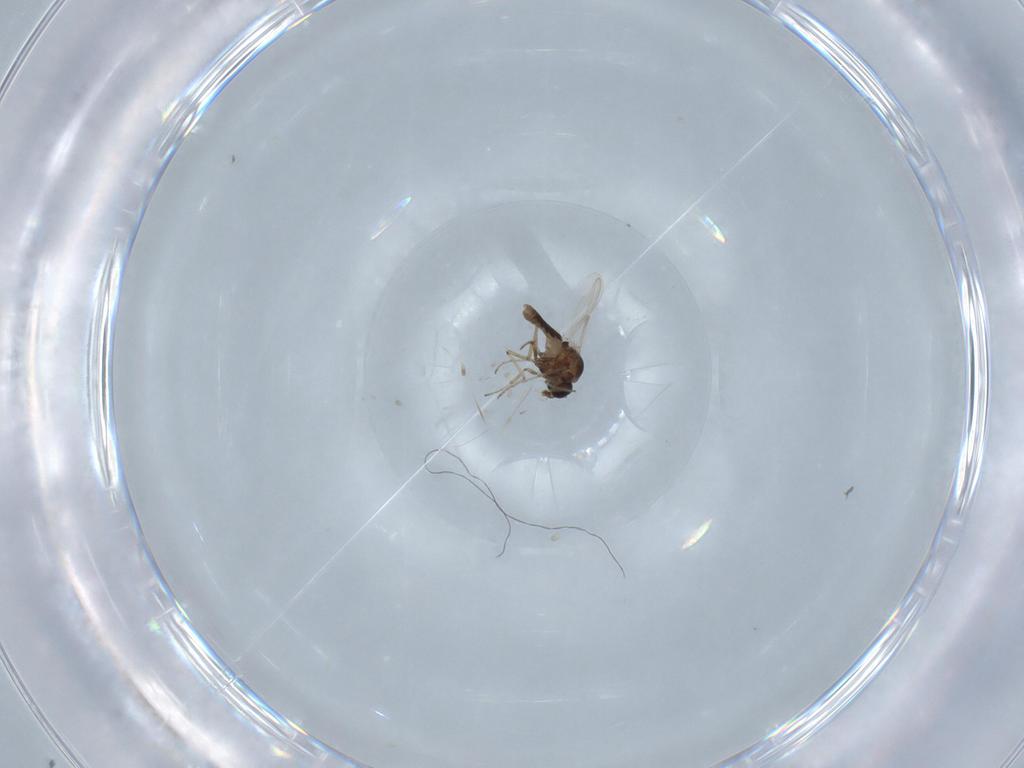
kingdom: Animalia
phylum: Arthropoda
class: Insecta
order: Diptera
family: Ceratopogonidae
